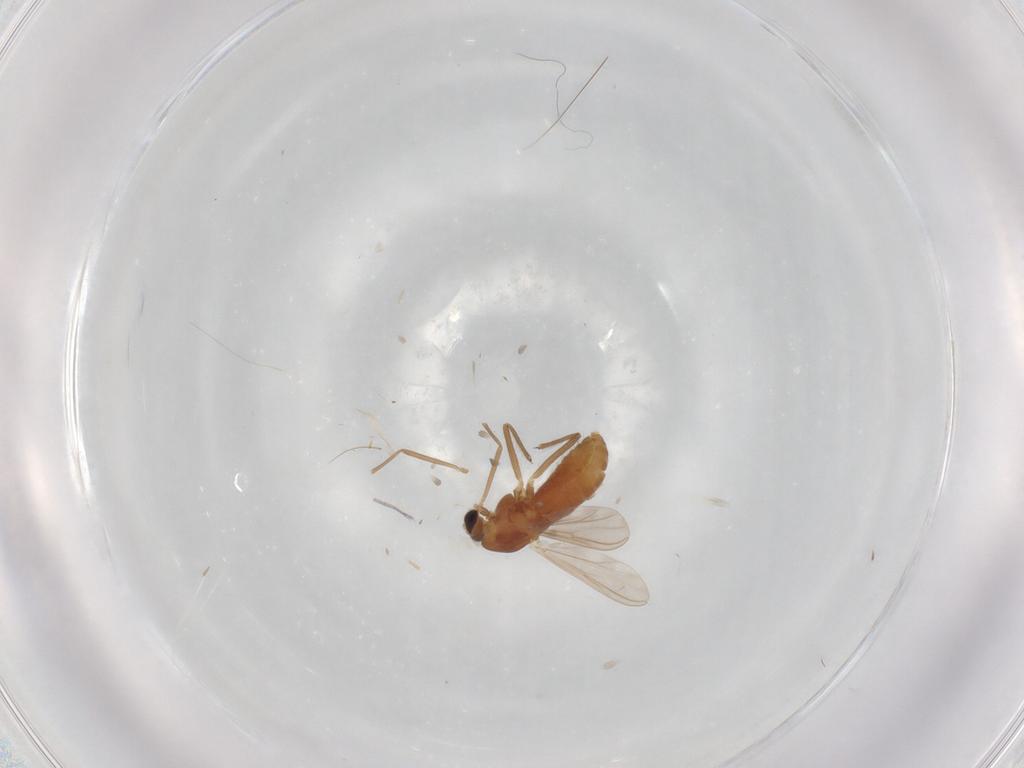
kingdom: Animalia
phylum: Arthropoda
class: Insecta
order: Diptera
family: Chironomidae
